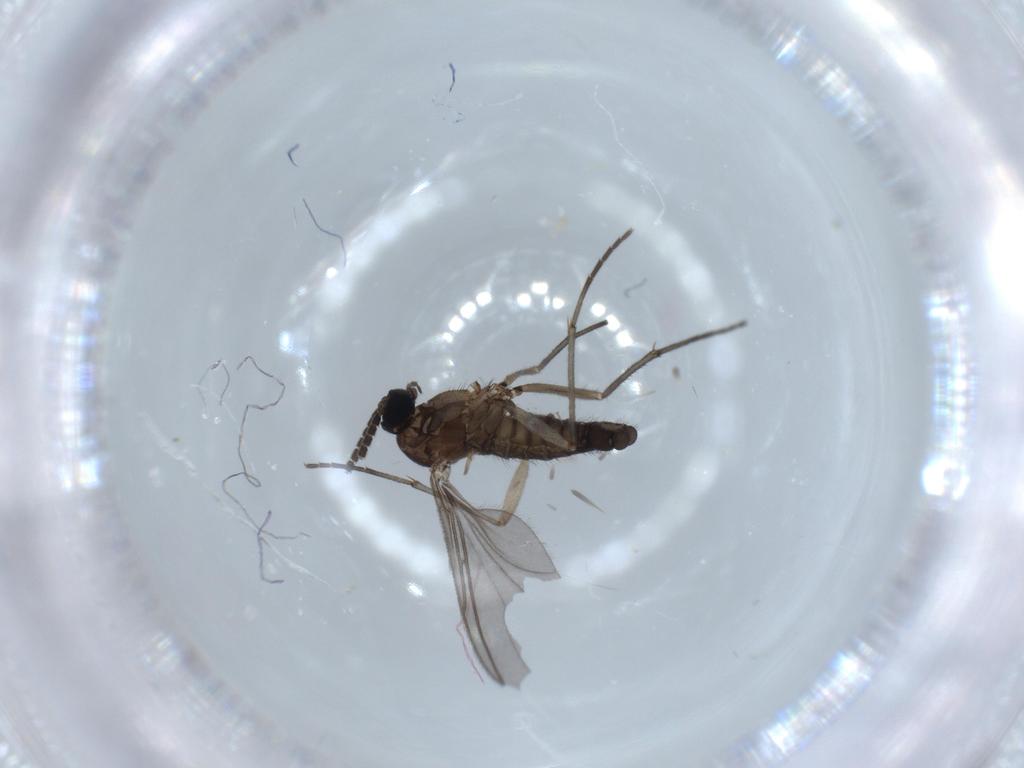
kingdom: Animalia
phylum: Arthropoda
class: Insecta
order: Diptera
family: Sciaridae
